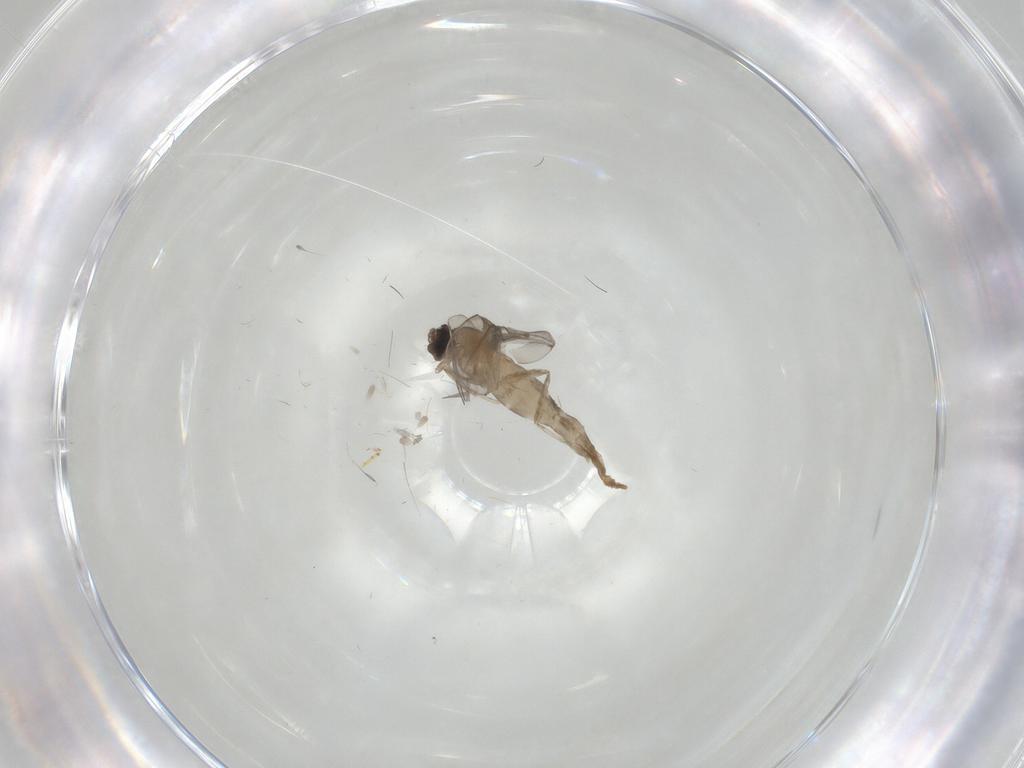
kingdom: Animalia
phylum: Arthropoda
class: Insecta
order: Diptera
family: Cecidomyiidae
